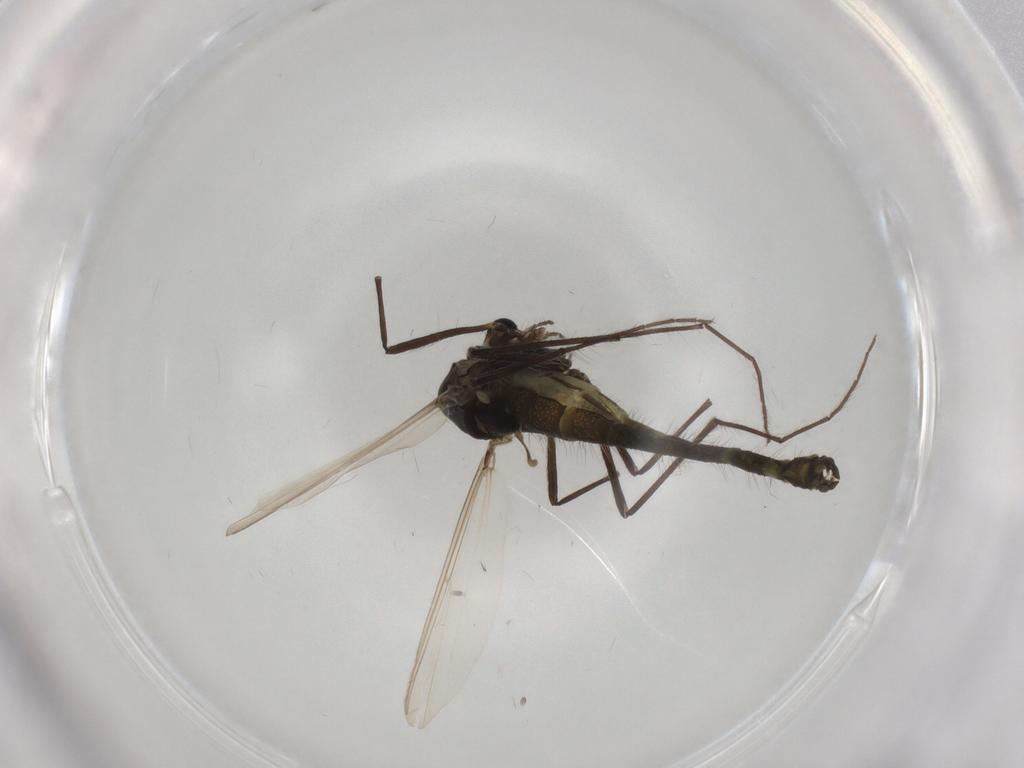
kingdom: Animalia
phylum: Arthropoda
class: Insecta
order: Diptera
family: Chironomidae
